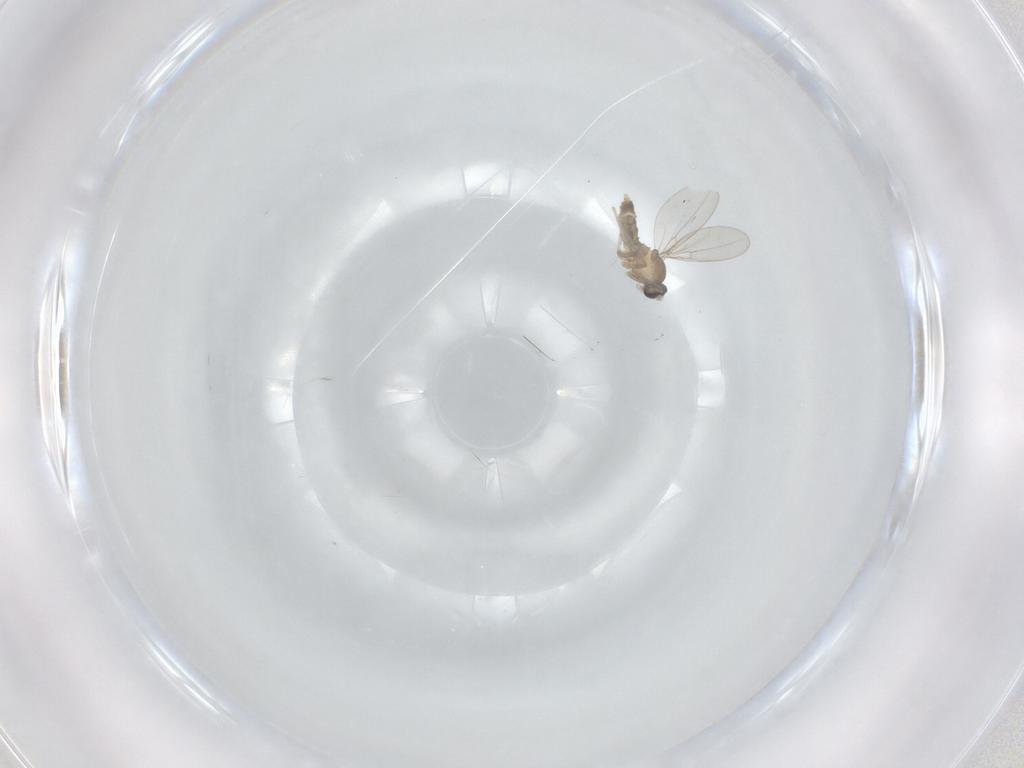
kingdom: Animalia
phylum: Arthropoda
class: Insecta
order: Diptera
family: Cecidomyiidae
